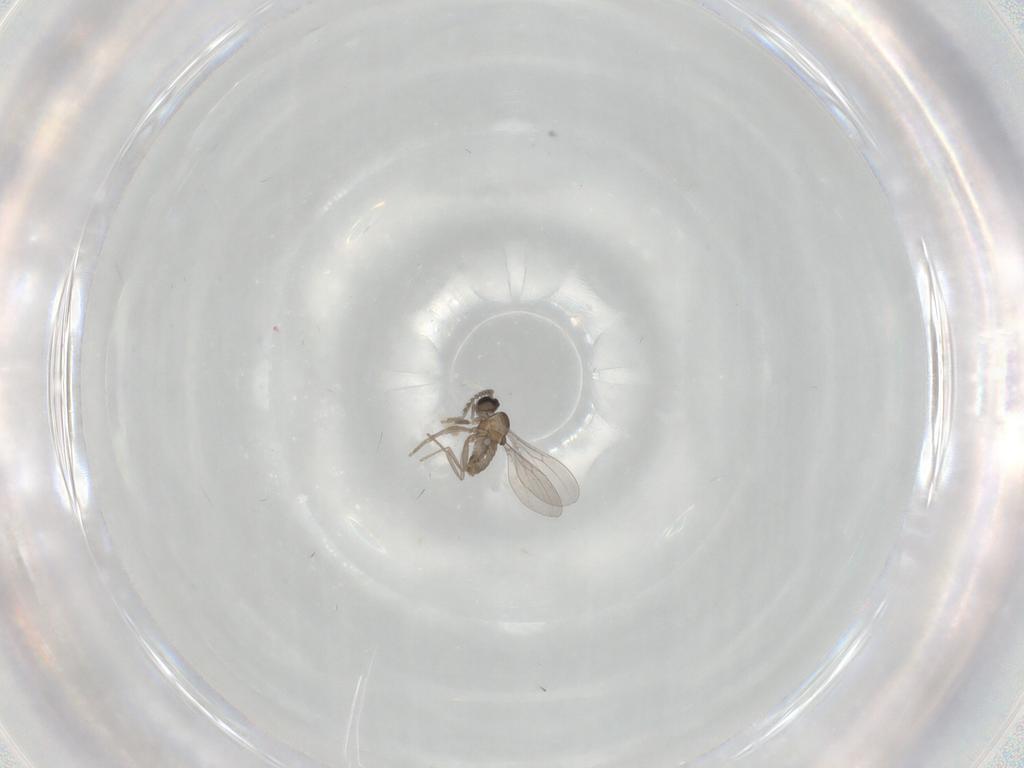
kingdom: Animalia
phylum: Arthropoda
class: Insecta
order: Diptera
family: Cecidomyiidae
